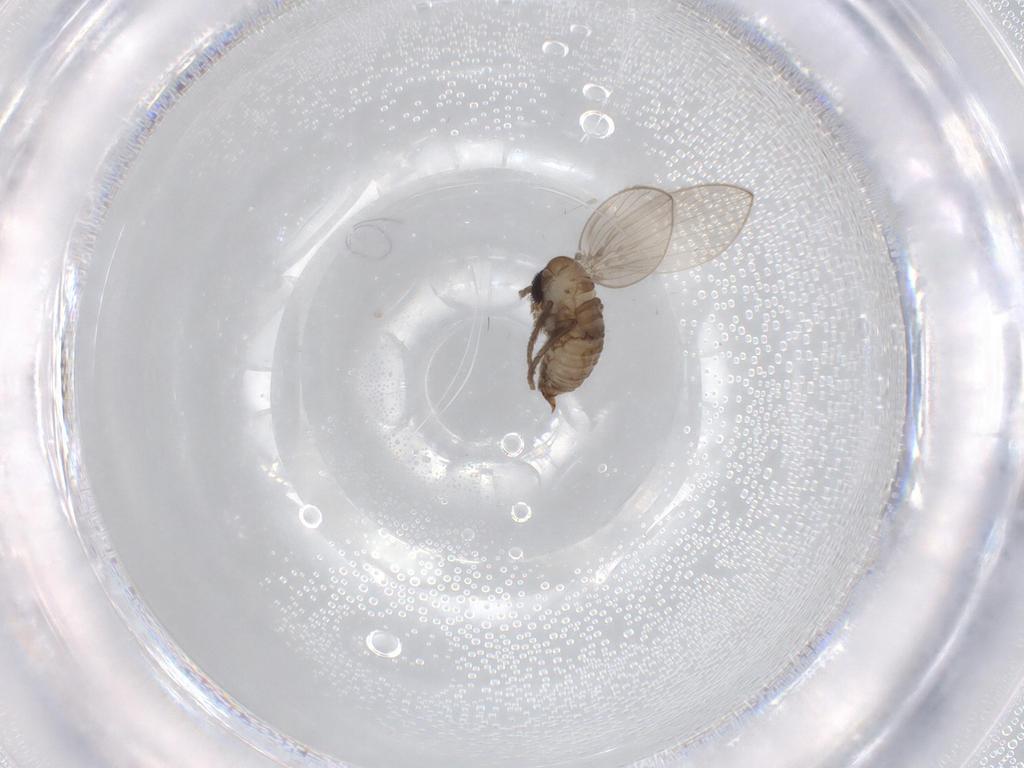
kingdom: Animalia
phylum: Arthropoda
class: Insecta
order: Diptera
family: Psychodidae
